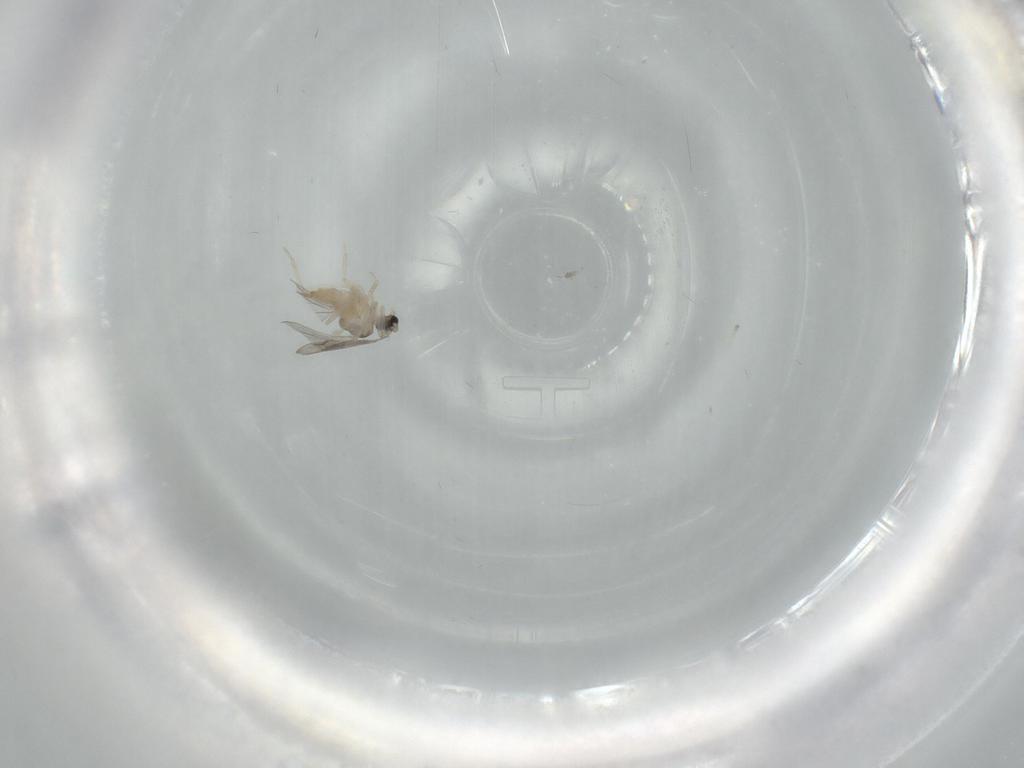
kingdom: Animalia
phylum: Arthropoda
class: Insecta
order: Diptera
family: Cecidomyiidae
